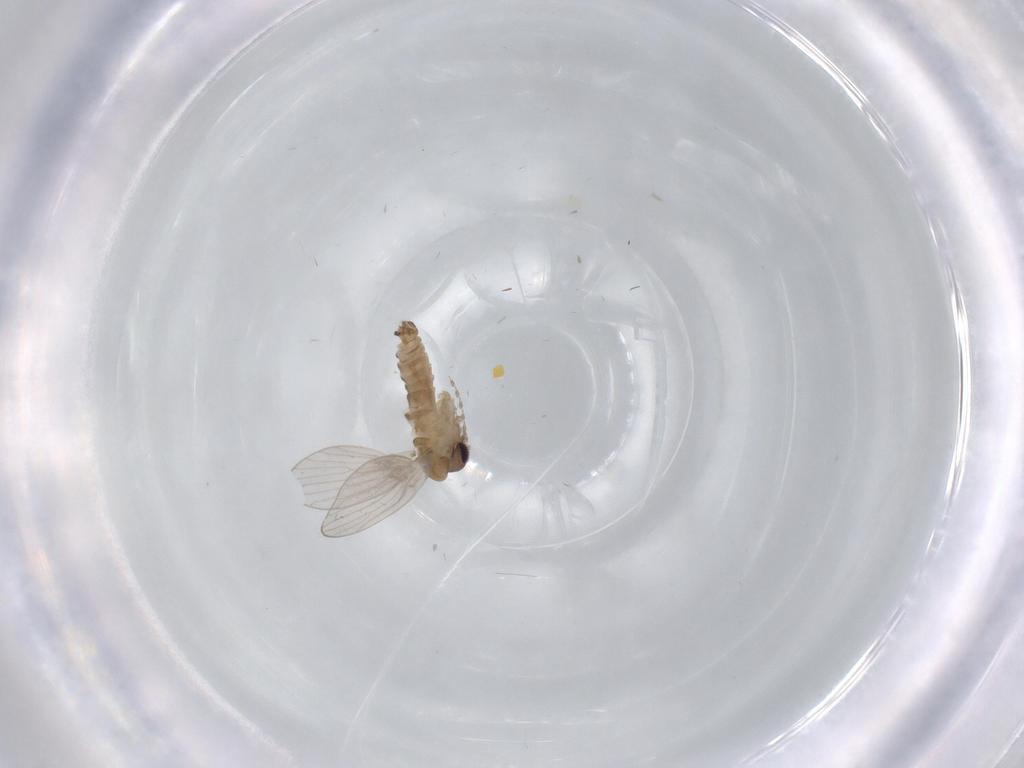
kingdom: Animalia
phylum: Arthropoda
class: Insecta
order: Diptera
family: Psychodidae
